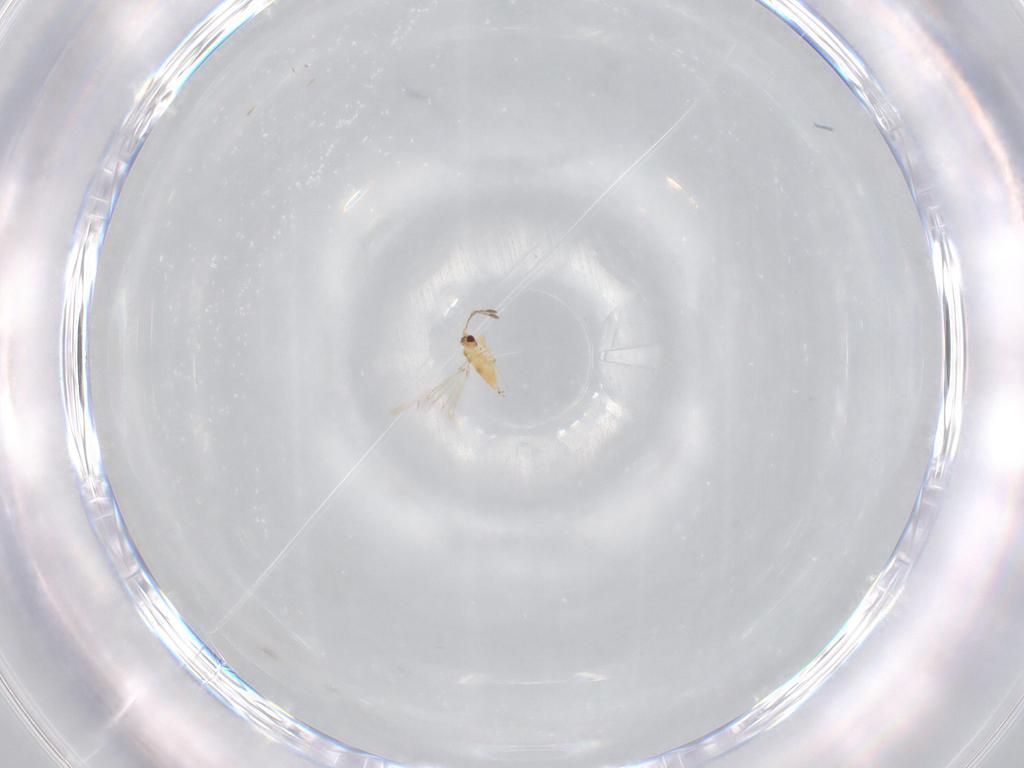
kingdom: Animalia
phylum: Arthropoda
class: Insecta
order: Hymenoptera
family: Mymaridae
